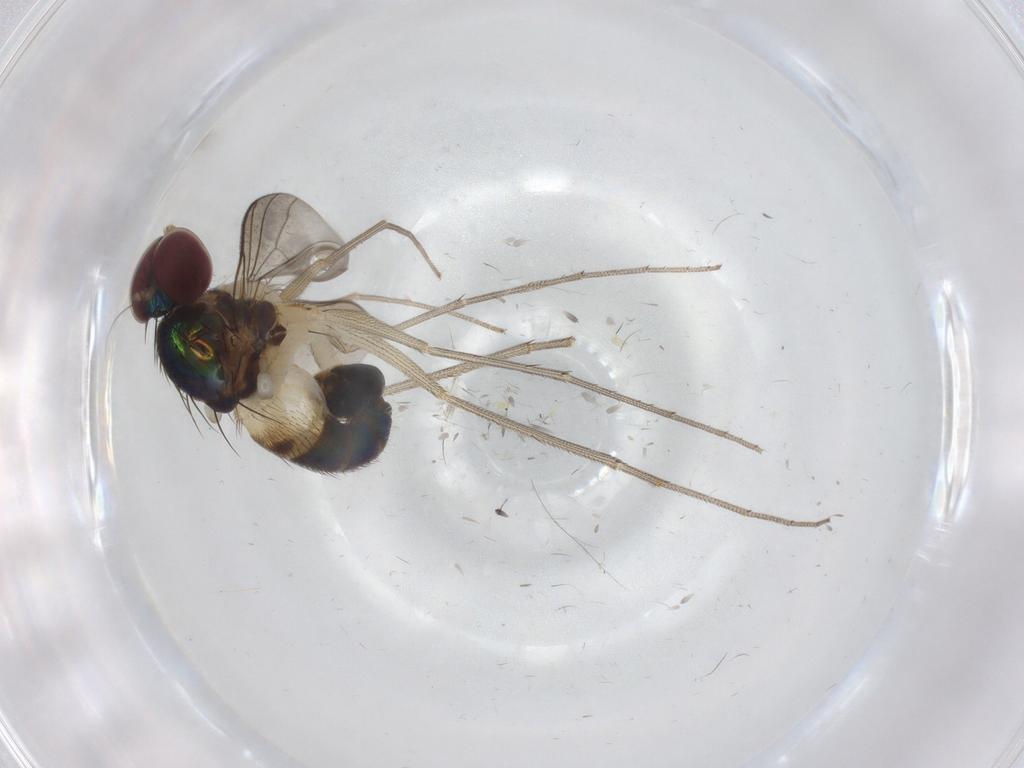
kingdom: Animalia
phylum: Arthropoda
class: Insecta
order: Diptera
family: Dolichopodidae
